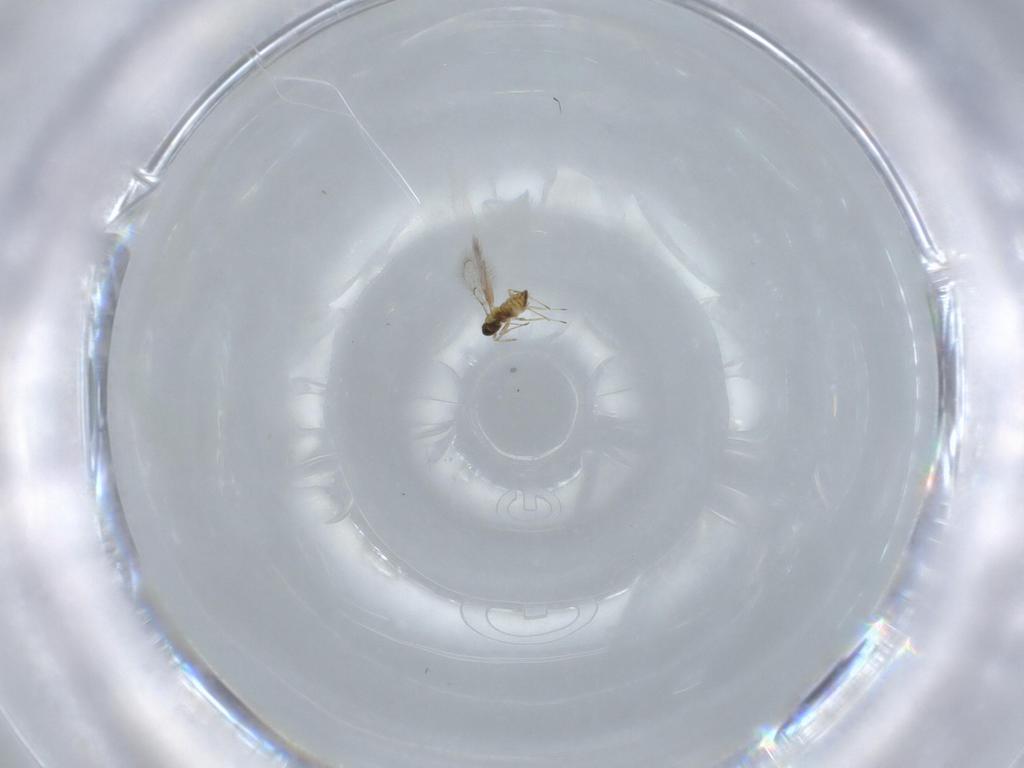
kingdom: Animalia
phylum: Arthropoda
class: Insecta
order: Hymenoptera
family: Trichogrammatidae
